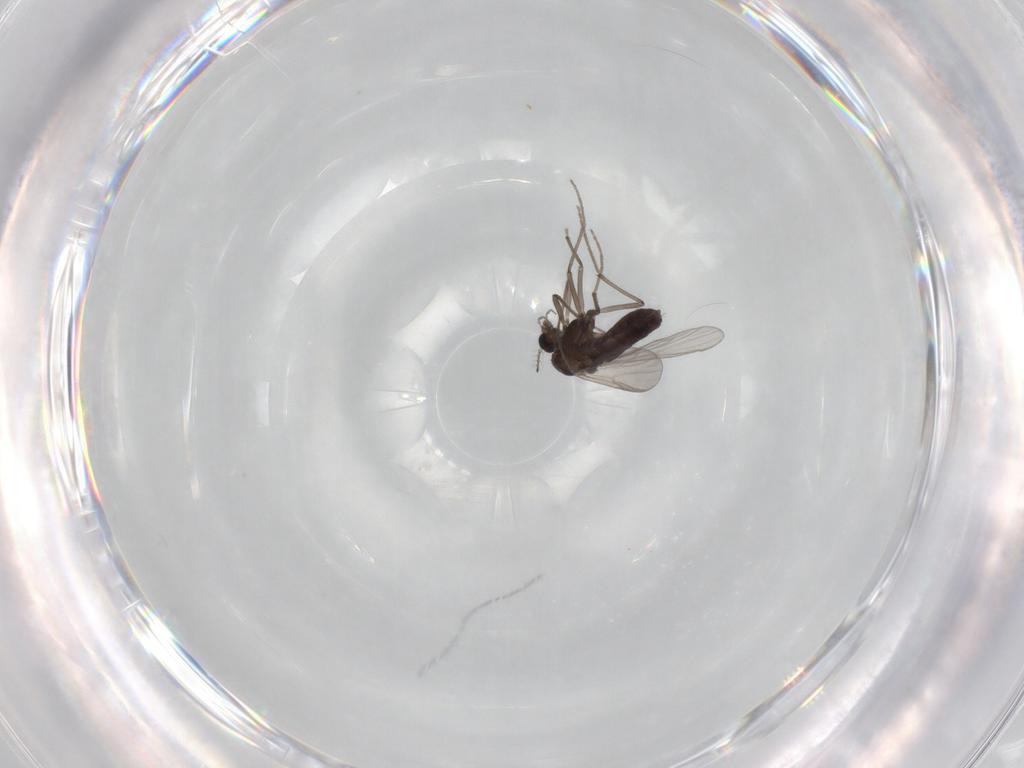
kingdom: Animalia
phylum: Arthropoda
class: Insecta
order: Diptera
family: Chironomidae
